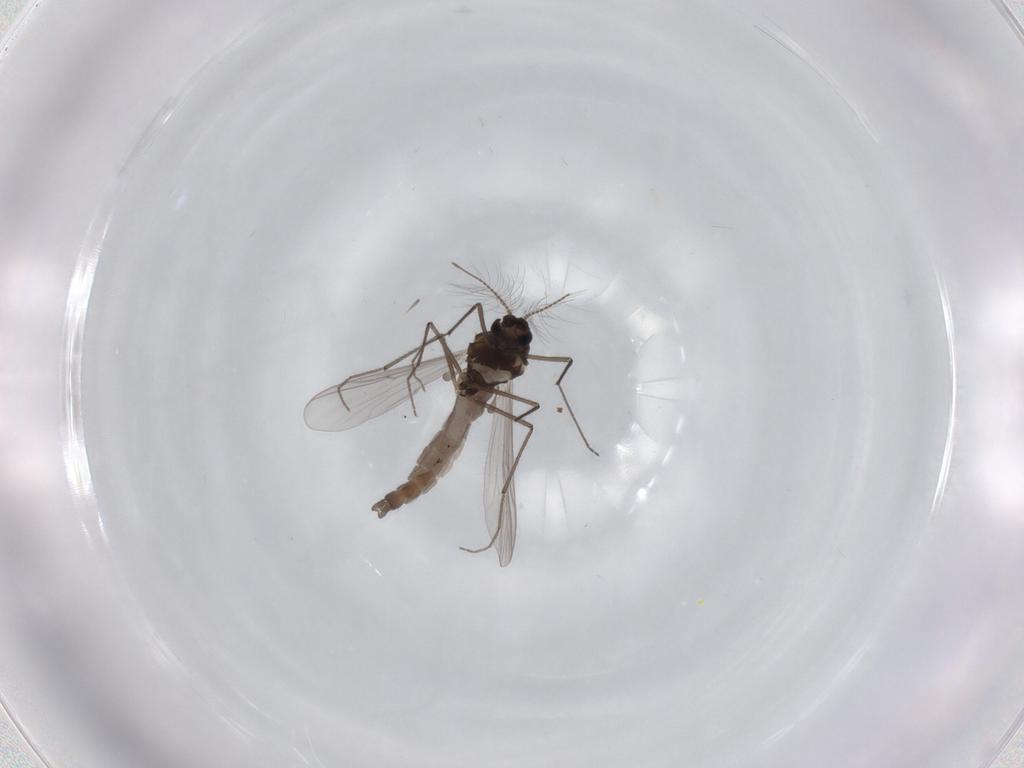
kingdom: Animalia
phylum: Arthropoda
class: Insecta
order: Diptera
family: Chironomidae
